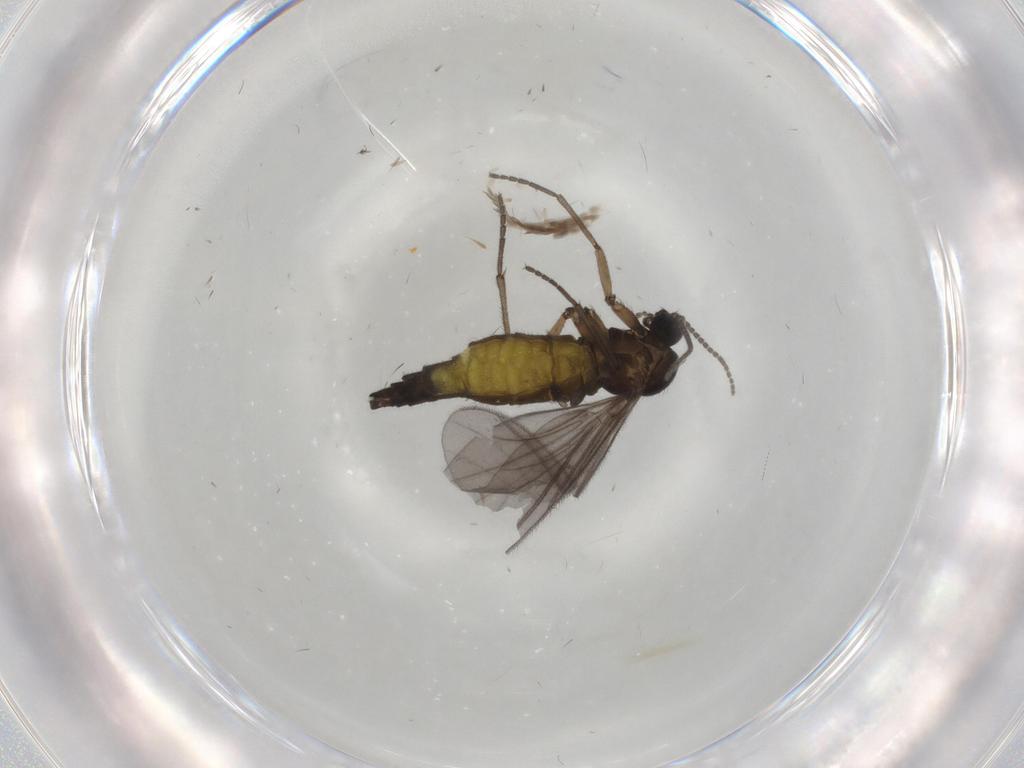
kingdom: Animalia
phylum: Arthropoda
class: Insecta
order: Diptera
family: Sciaridae
